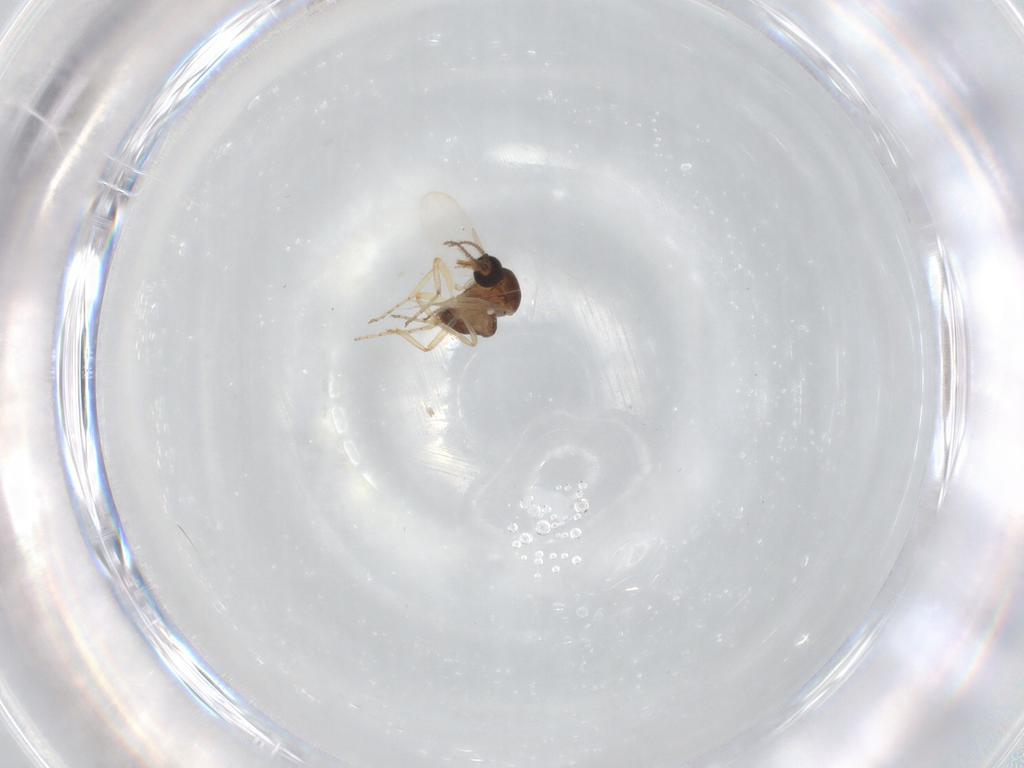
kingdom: Animalia
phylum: Arthropoda
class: Insecta
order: Diptera
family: Ceratopogonidae
